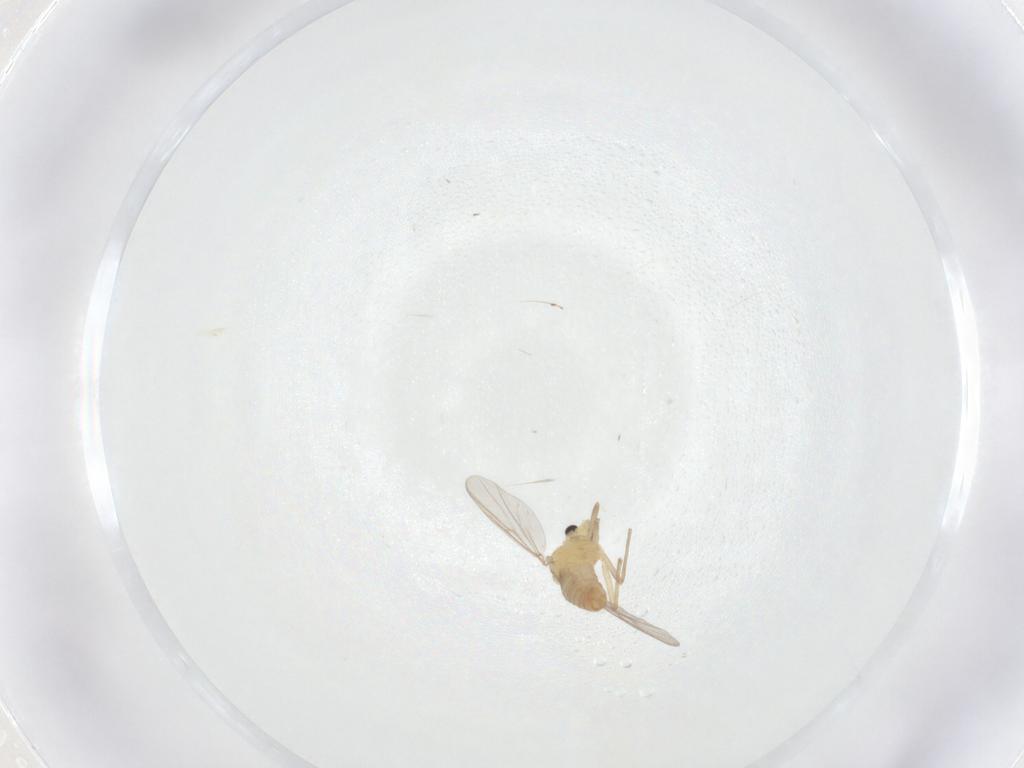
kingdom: Animalia
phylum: Arthropoda
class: Insecta
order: Diptera
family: Chironomidae
